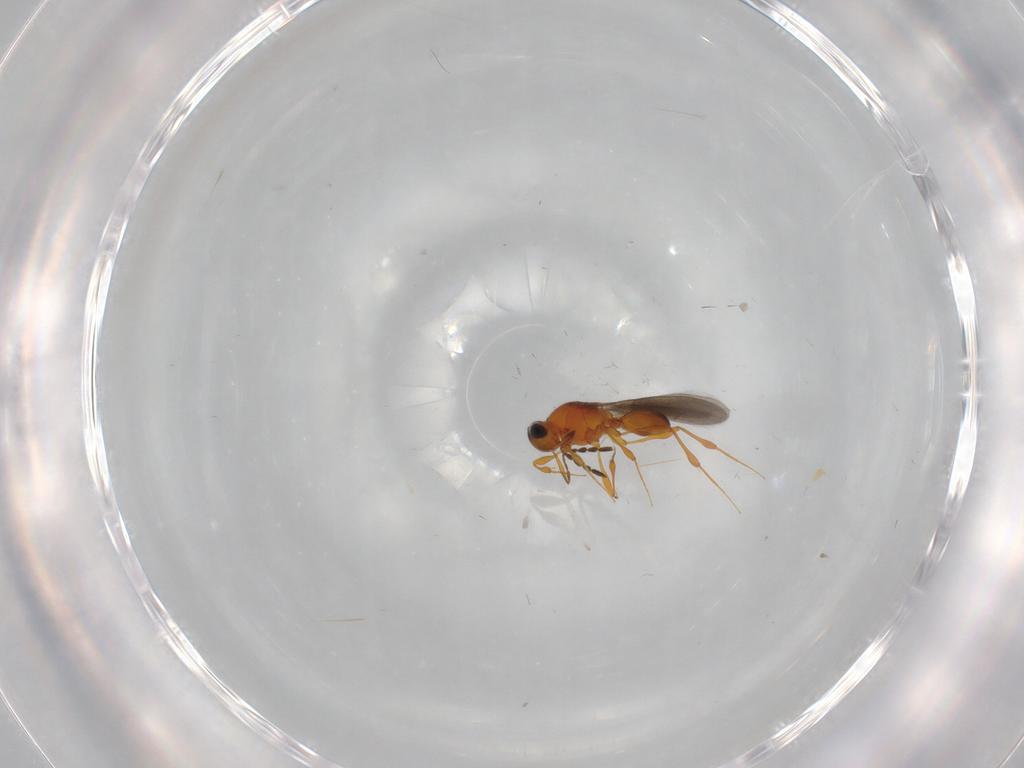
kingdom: Animalia
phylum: Arthropoda
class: Insecta
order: Hymenoptera
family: Platygastridae
